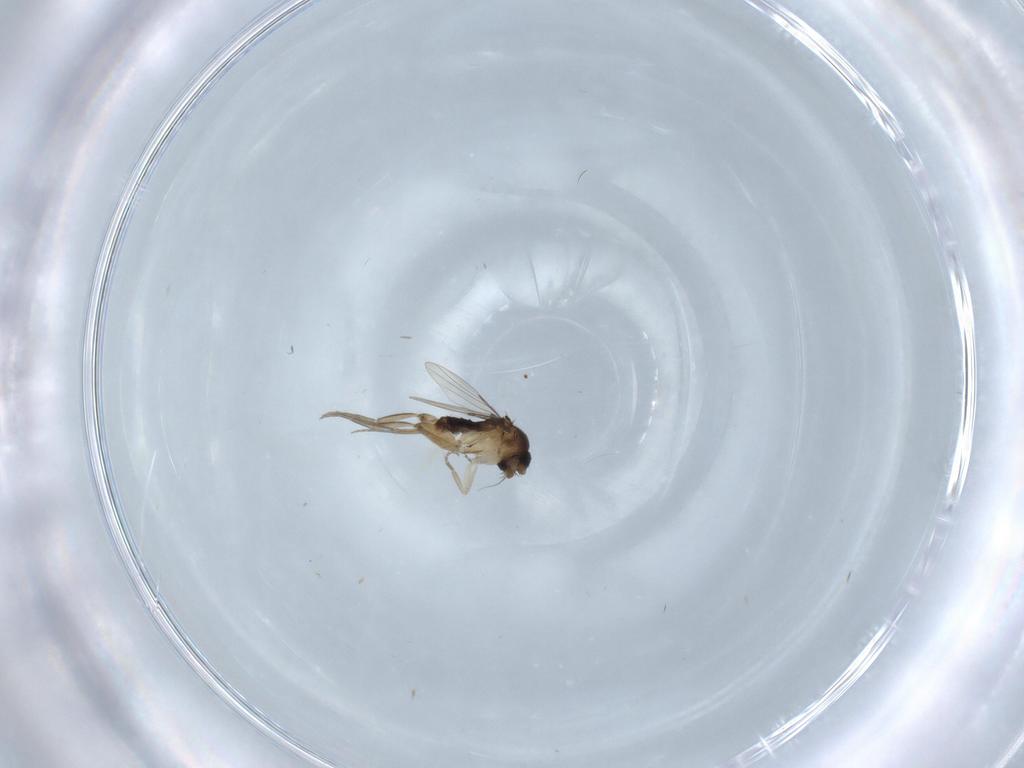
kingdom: Animalia
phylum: Arthropoda
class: Insecta
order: Diptera
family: Phoridae
